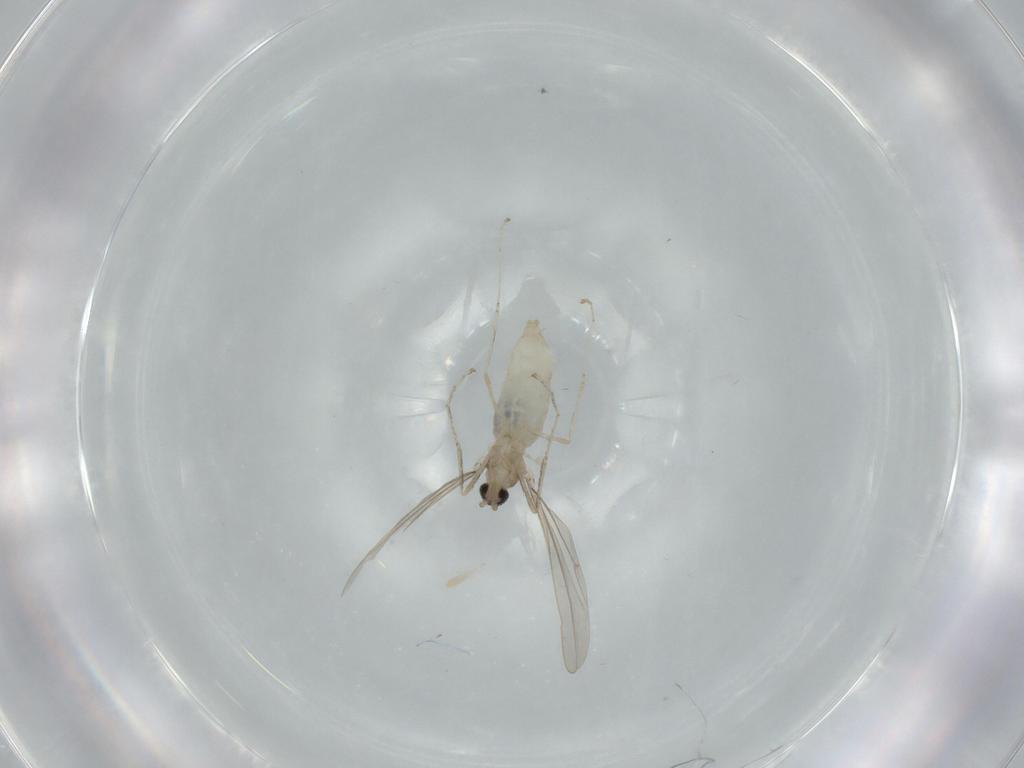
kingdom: Animalia
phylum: Arthropoda
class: Insecta
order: Diptera
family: Cecidomyiidae
